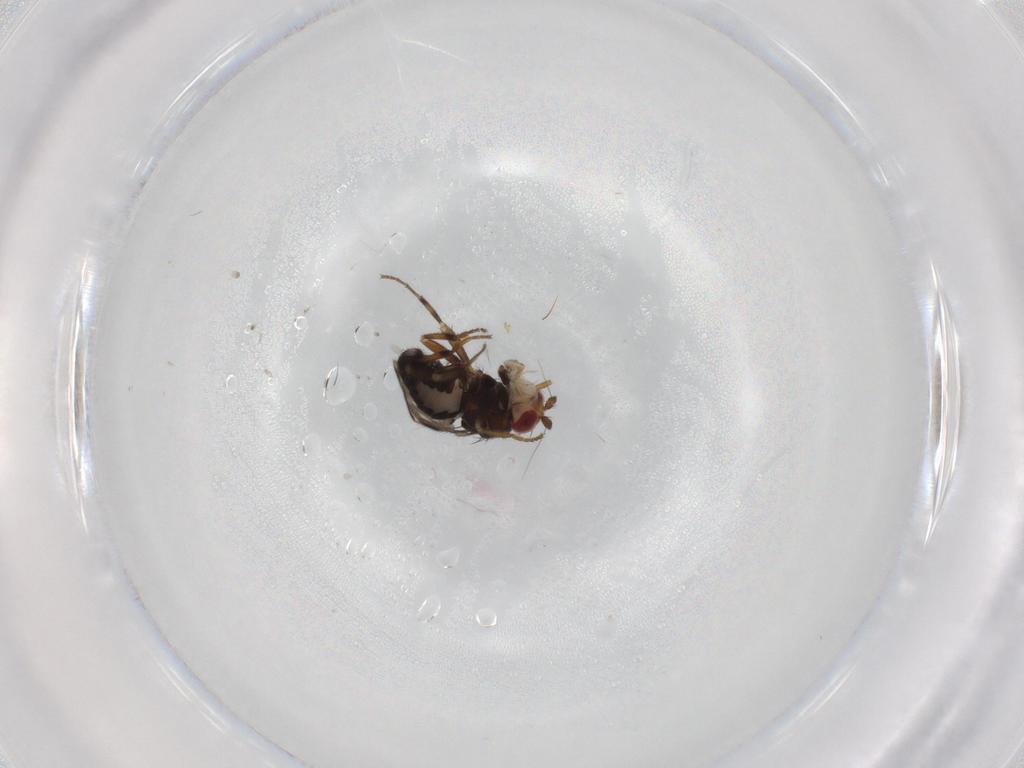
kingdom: Animalia
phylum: Arthropoda
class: Insecta
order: Diptera
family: Sphaeroceridae
